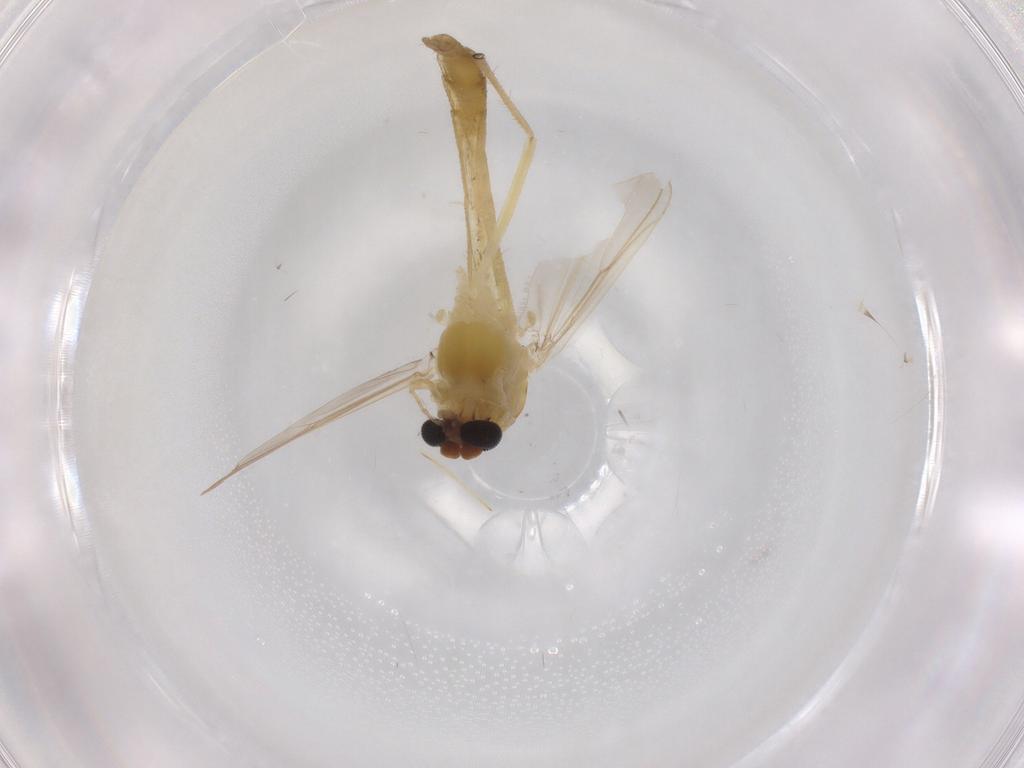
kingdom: Animalia
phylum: Arthropoda
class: Insecta
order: Diptera
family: Chironomidae
